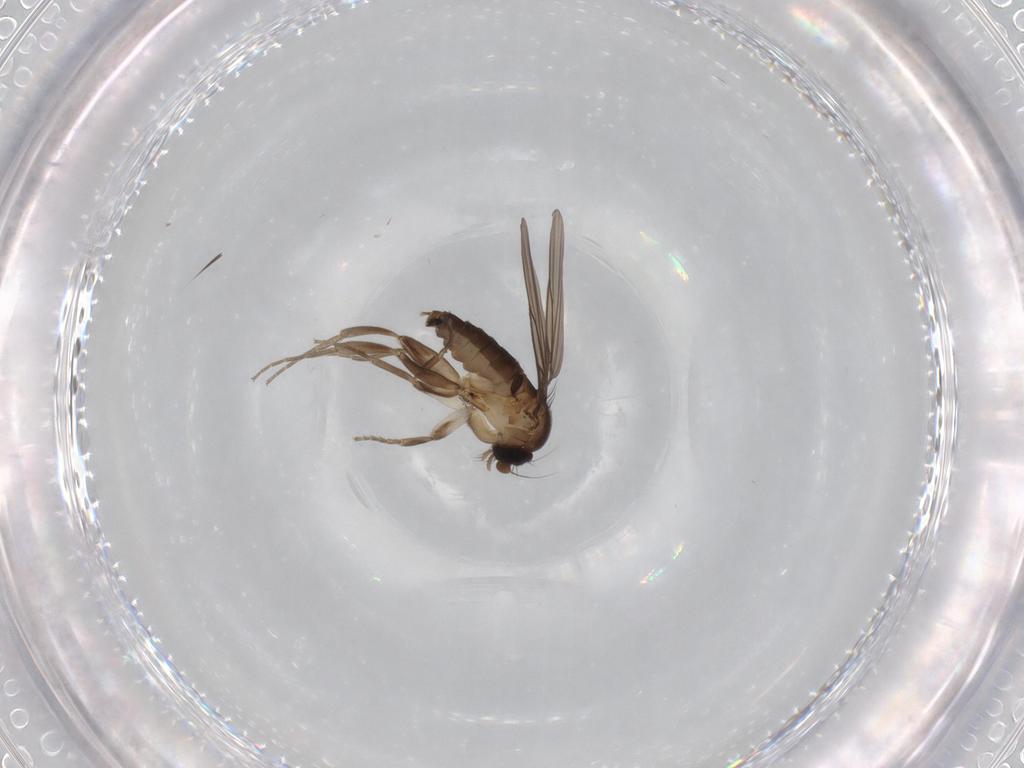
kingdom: Animalia
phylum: Arthropoda
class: Insecta
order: Diptera
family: Cecidomyiidae
